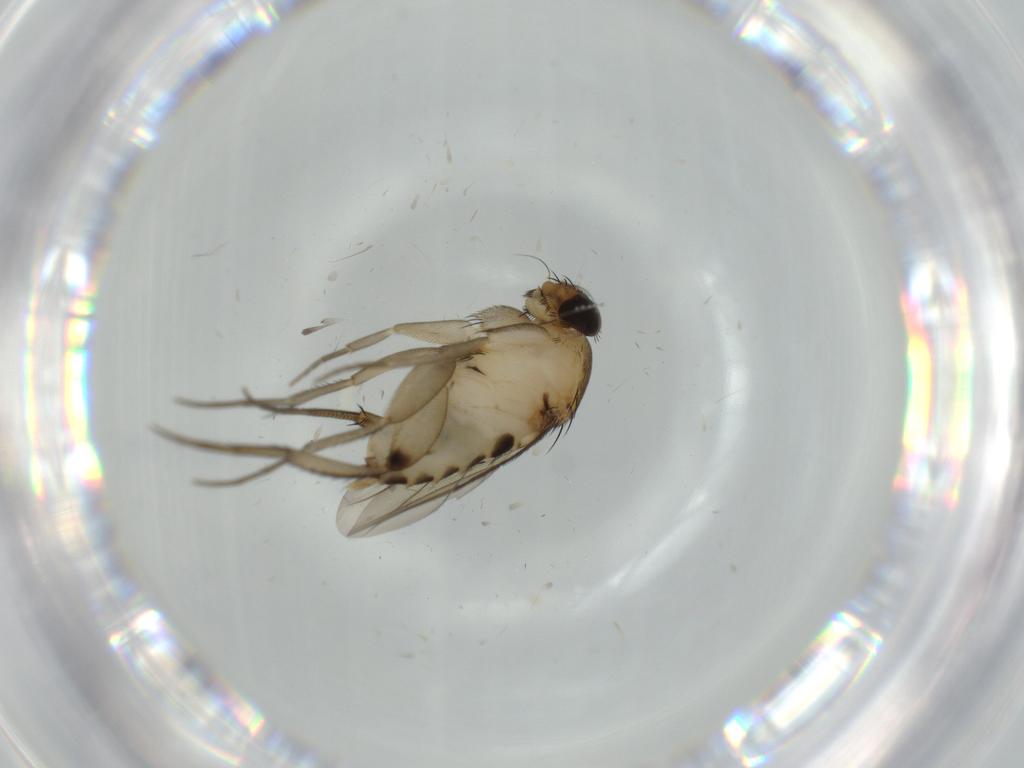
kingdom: Animalia
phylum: Arthropoda
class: Insecta
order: Diptera
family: Phoridae
